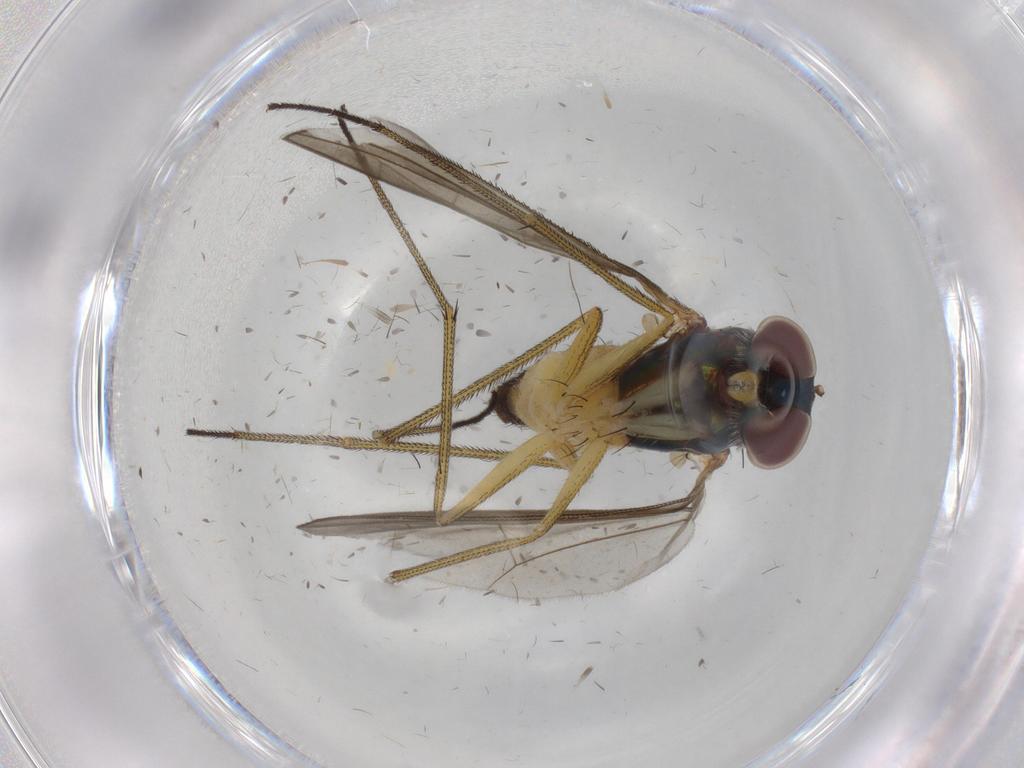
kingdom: Animalia
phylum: Arthropoda
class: Insecta
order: Diptera
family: Dolichopodidae
